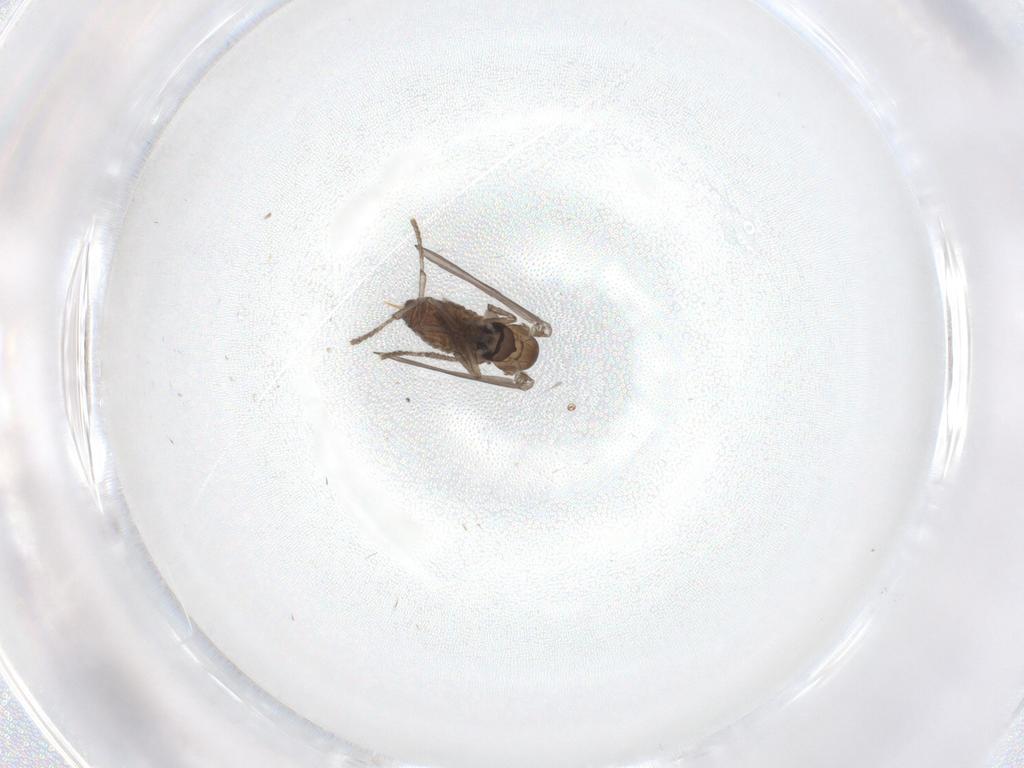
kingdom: Animalia
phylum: Arthropoda
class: Insecta
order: Diptera
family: Psychodidae
